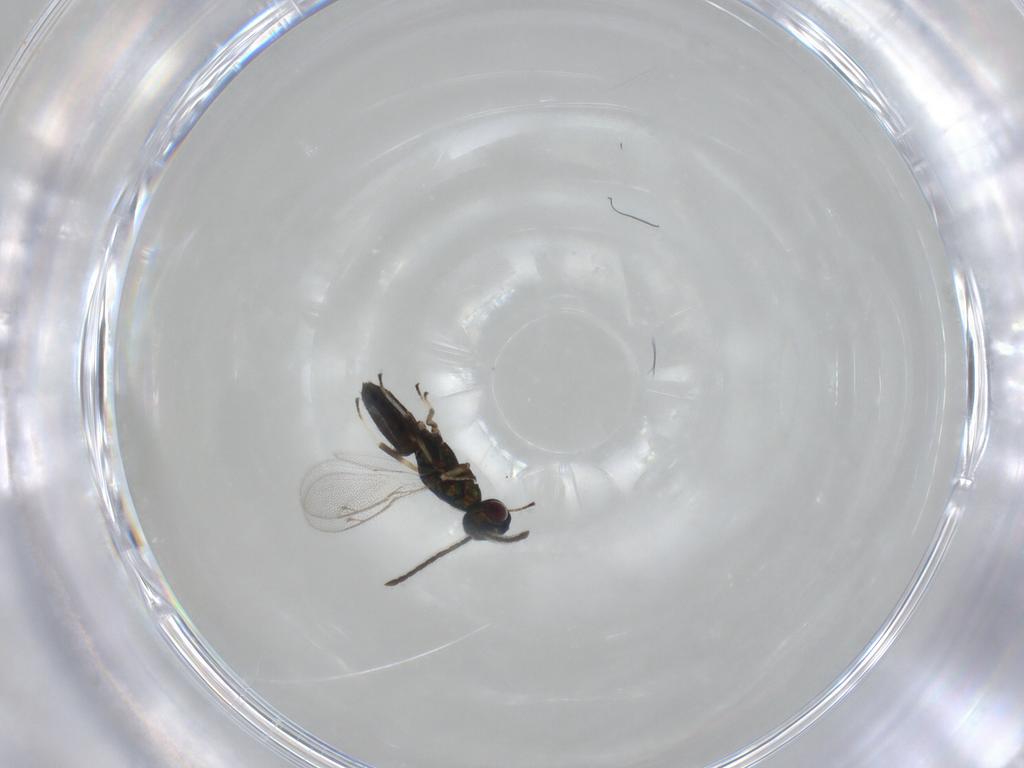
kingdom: Animalia
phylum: Arthropoda
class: Insecta
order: Hymenoptera
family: Eupelmidae
